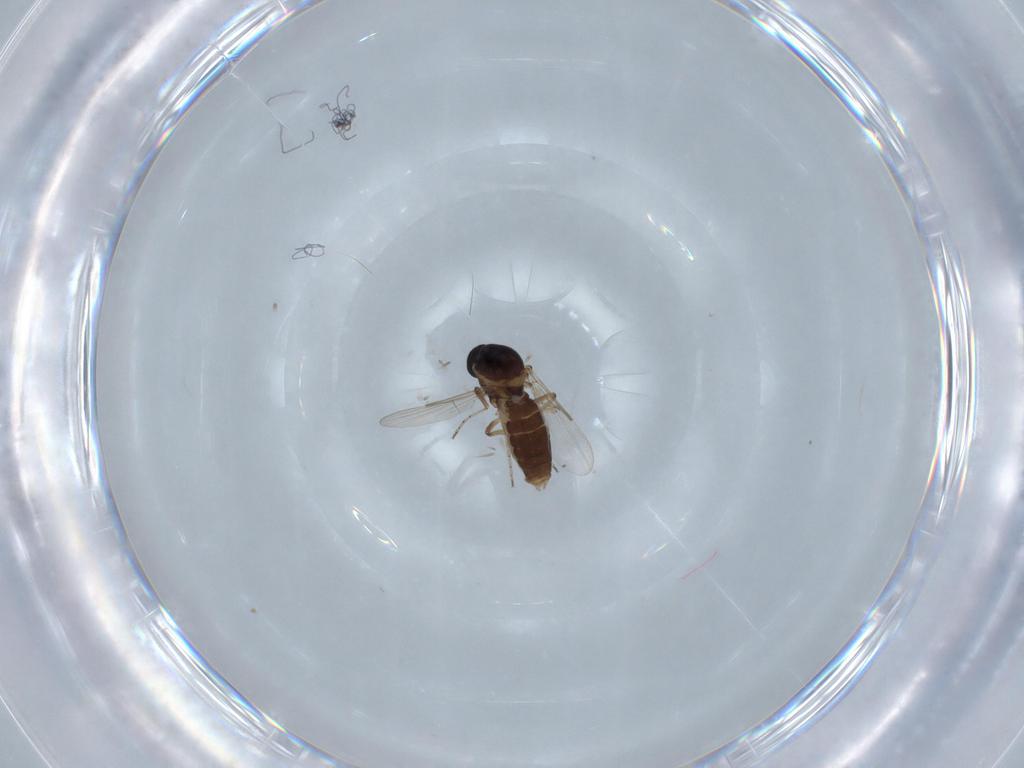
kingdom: Animalia
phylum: Arthropoda
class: Insecta
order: Diptera
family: Ceratopogonidae
